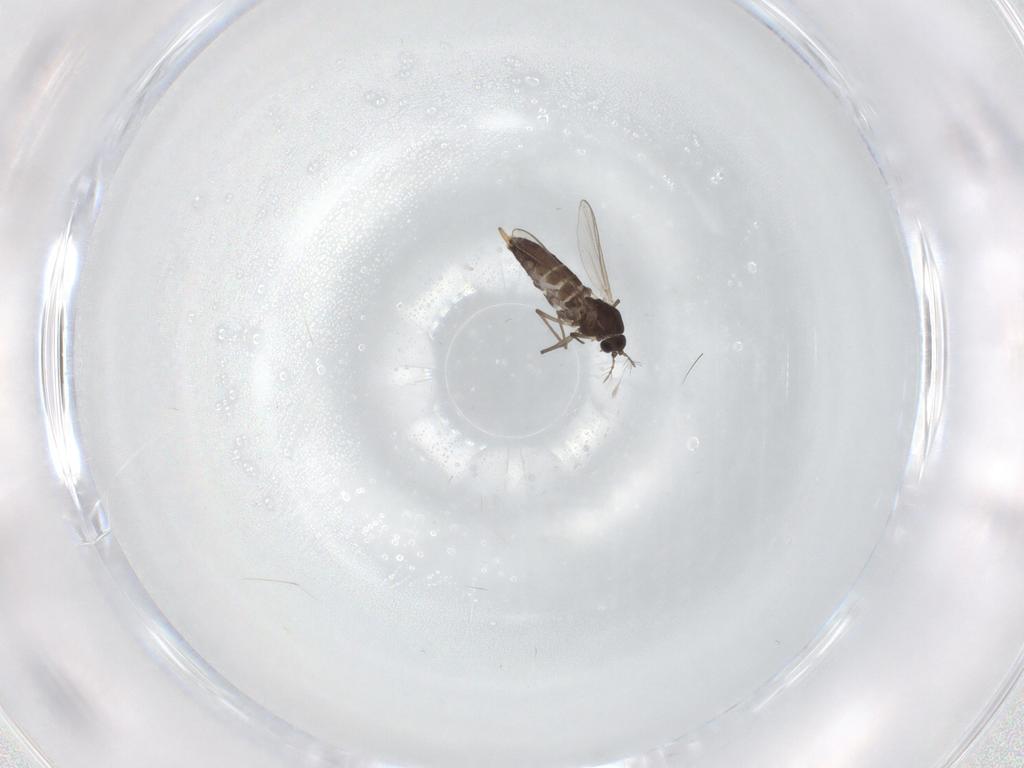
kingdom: Animalia
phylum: Arthropoda
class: Insecta
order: Diptera
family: Chironomidae
